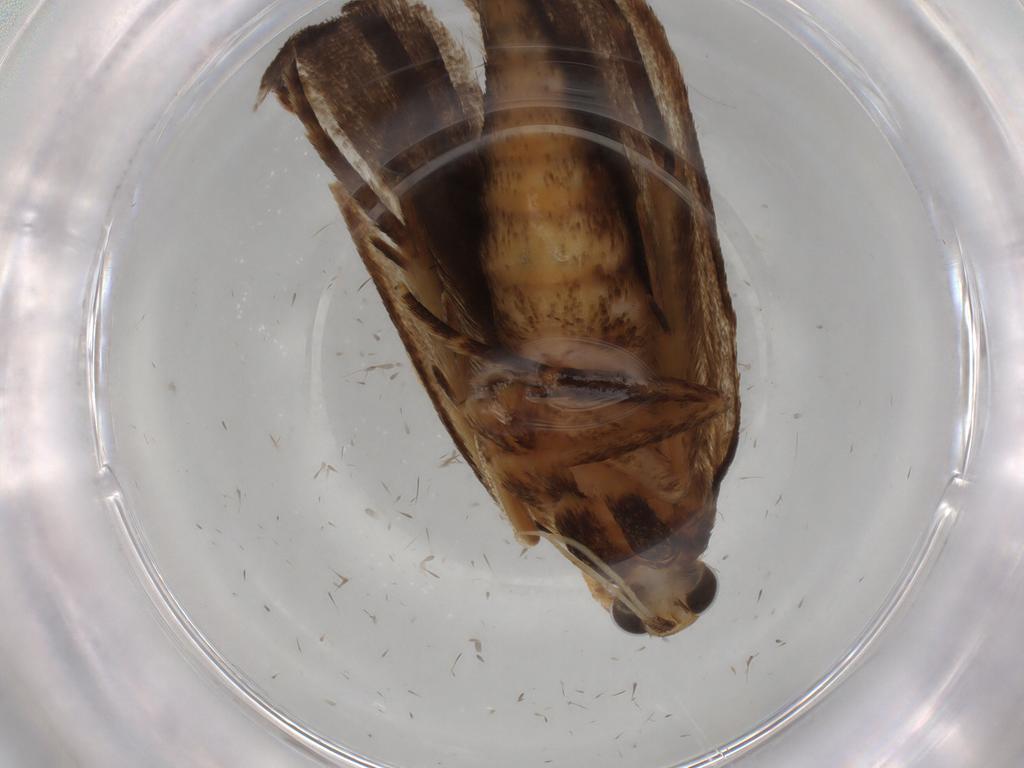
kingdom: Animalia
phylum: Arthropoda
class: Insecta
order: Lepidoptera
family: Autostichidae
